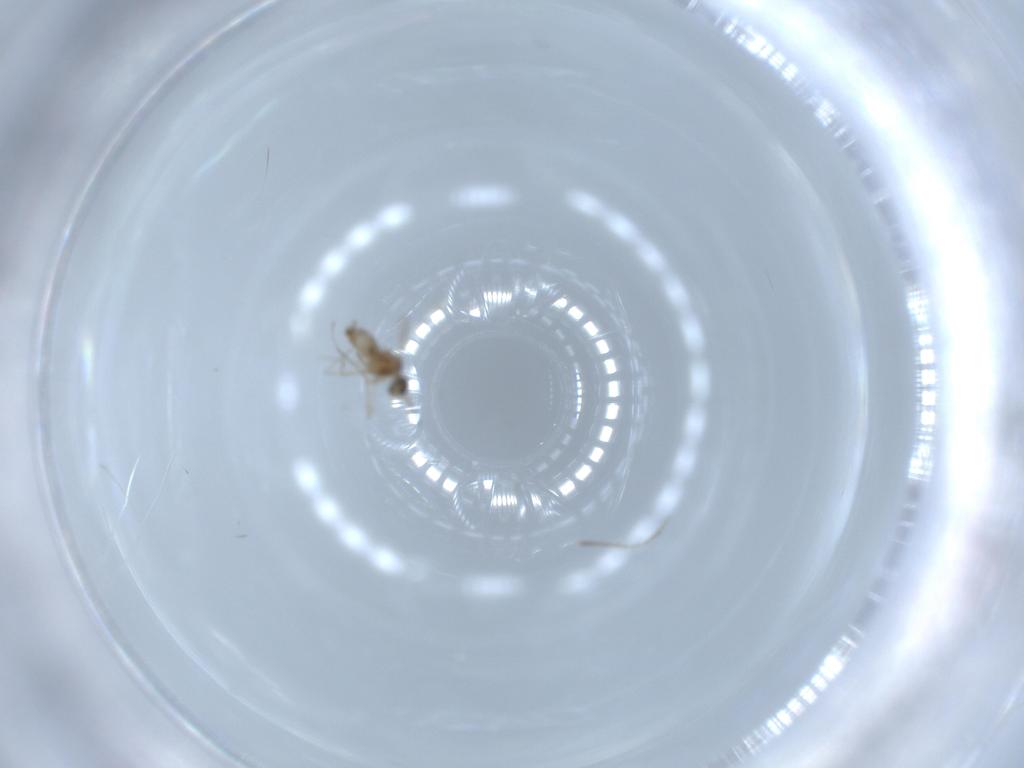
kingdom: Animalia
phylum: Arthropoda
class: Insecta
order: Diptera
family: Cecidomyiidae
